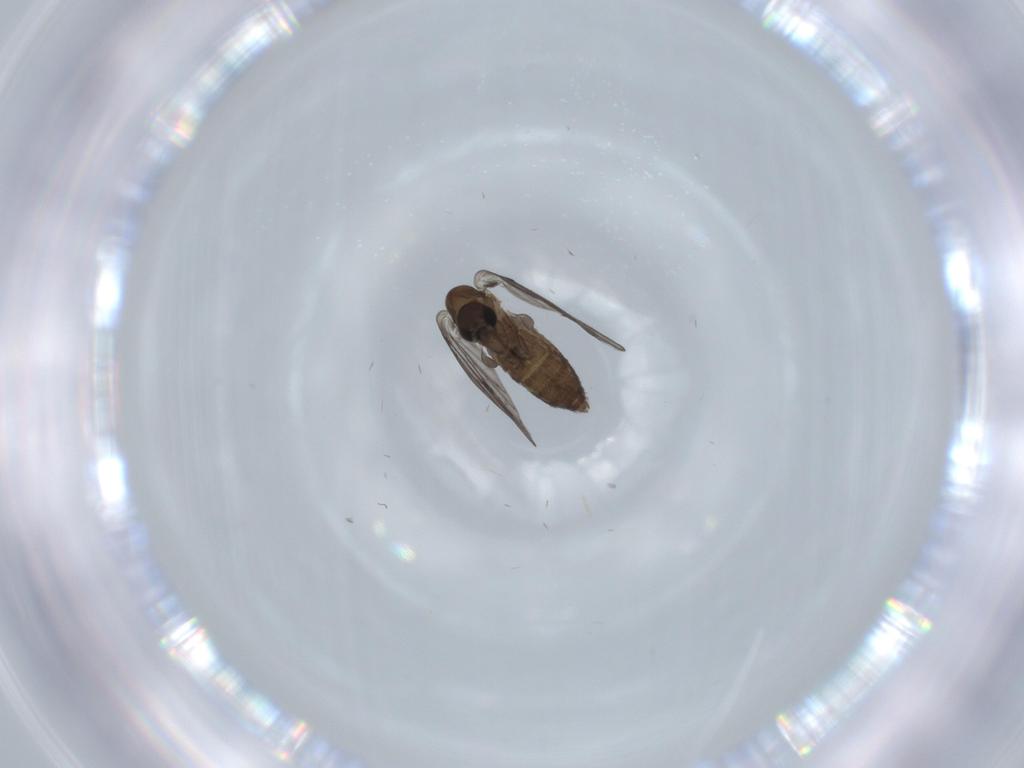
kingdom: Animalia
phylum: Arthropoda
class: Insecta
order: Diptera
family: Psychodidae
